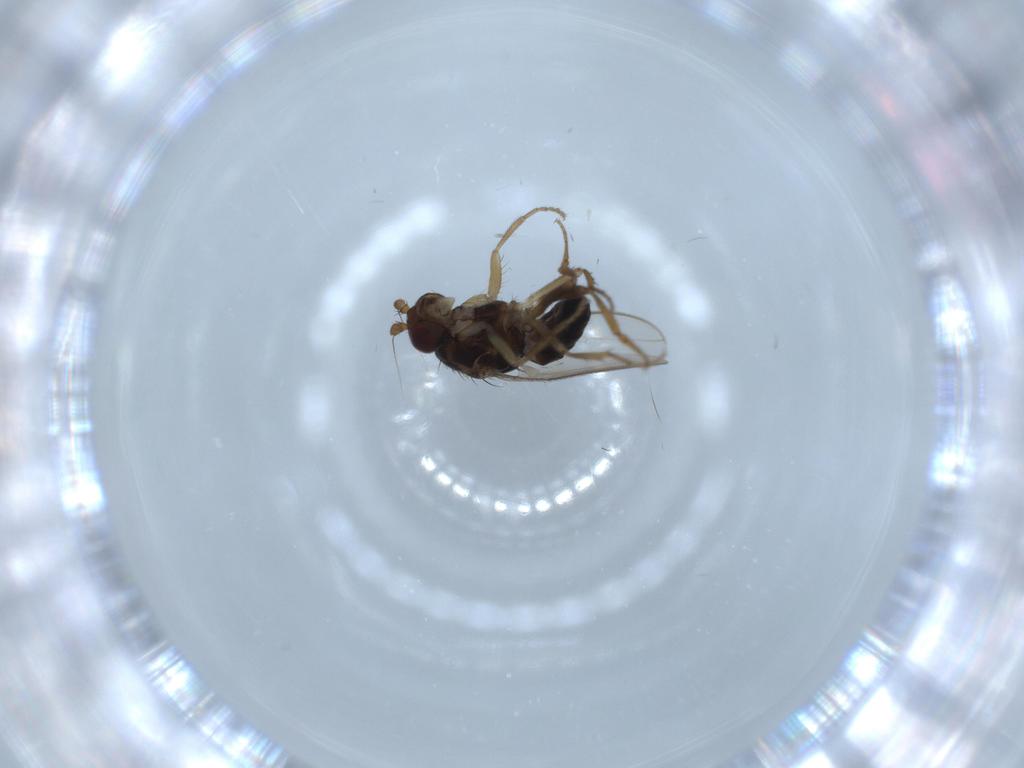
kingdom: Animalia
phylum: Arthropoda
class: Insecta
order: Diptera
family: Sphaeroceridae
